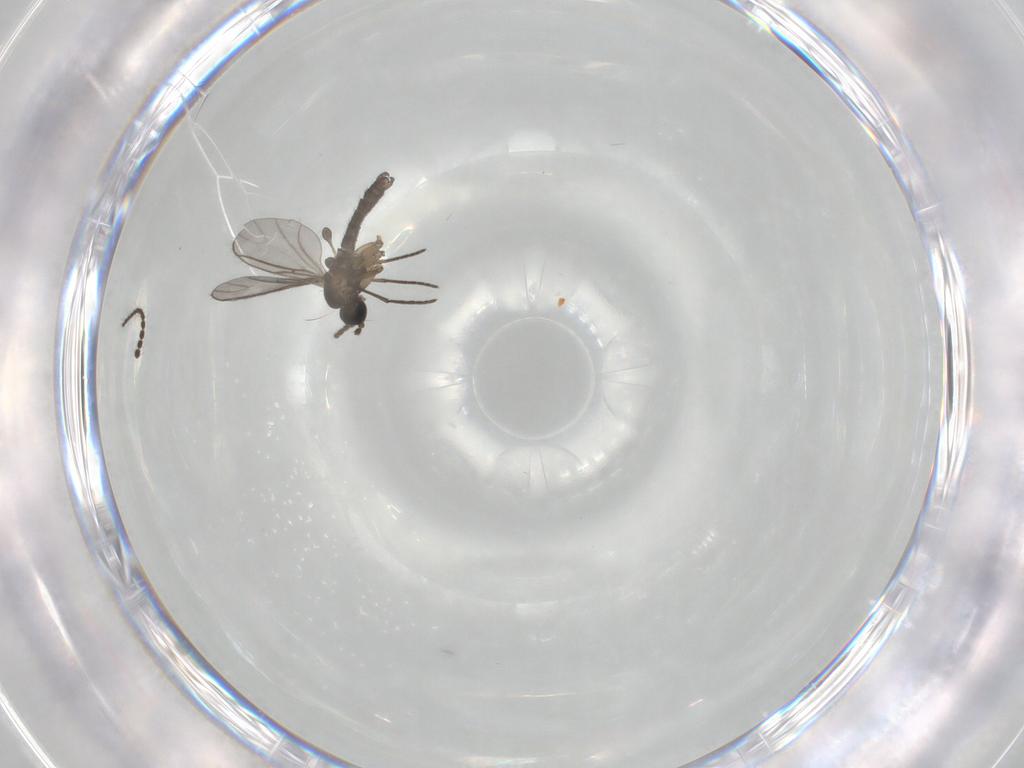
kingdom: Animalia
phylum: Arthropoda
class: Insecta
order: Diptera
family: Limoniidae
